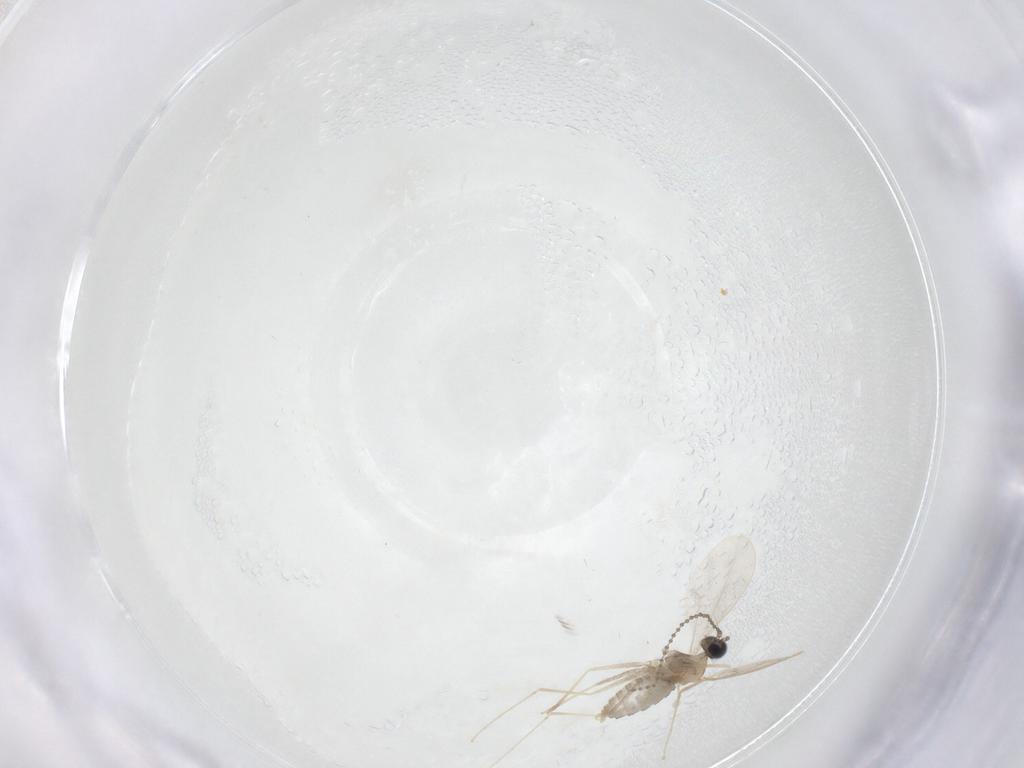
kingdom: Animalia
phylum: Arthropoda
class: Insecta
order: Diptera
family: Cecidomyiidae
